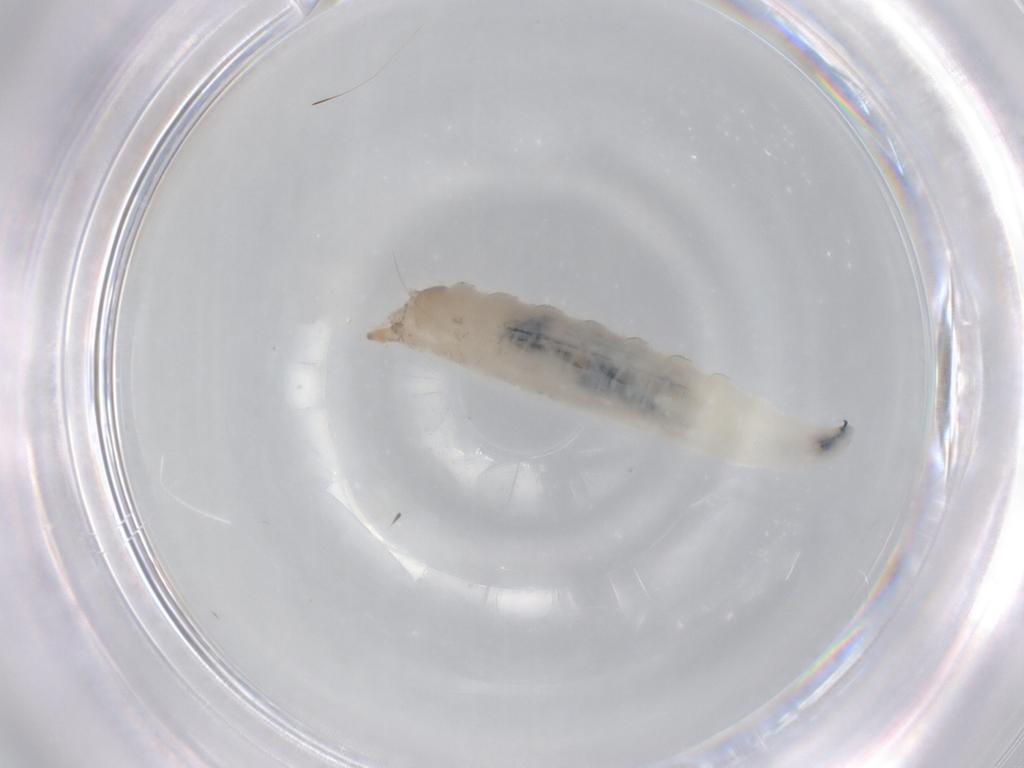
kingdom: Animalia
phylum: Arthropoda
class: Insecta
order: Diptera
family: Drosophilidae
